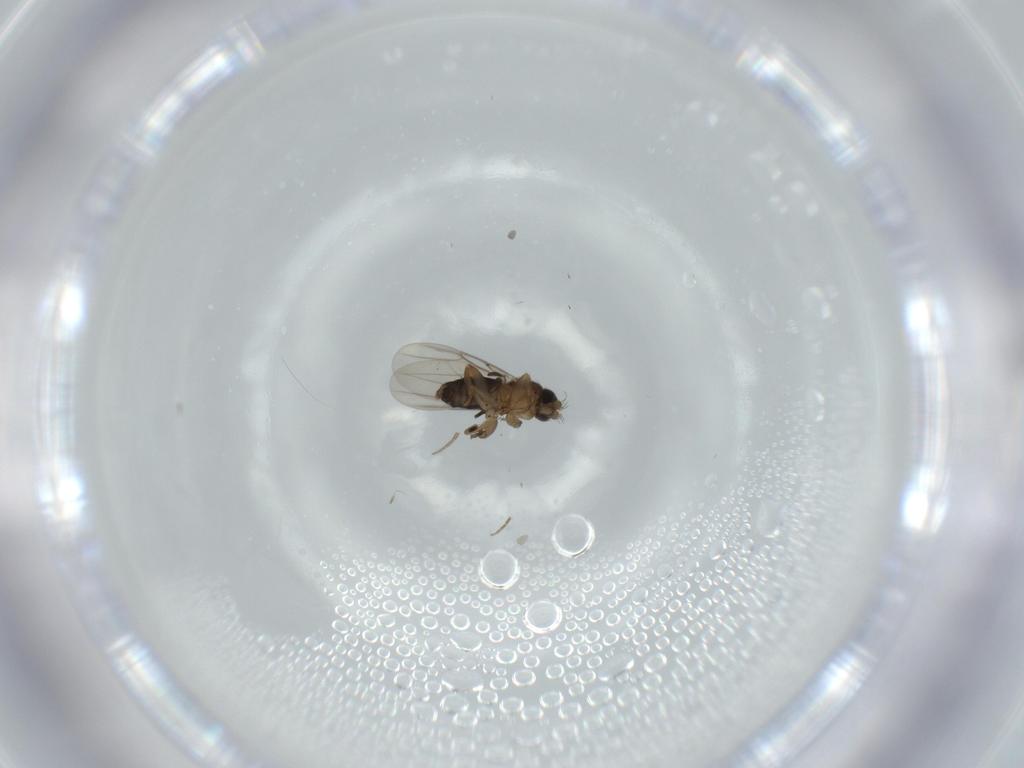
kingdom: Animalia
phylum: Arthropoda
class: Insecta
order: Diptera
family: Phoridae
